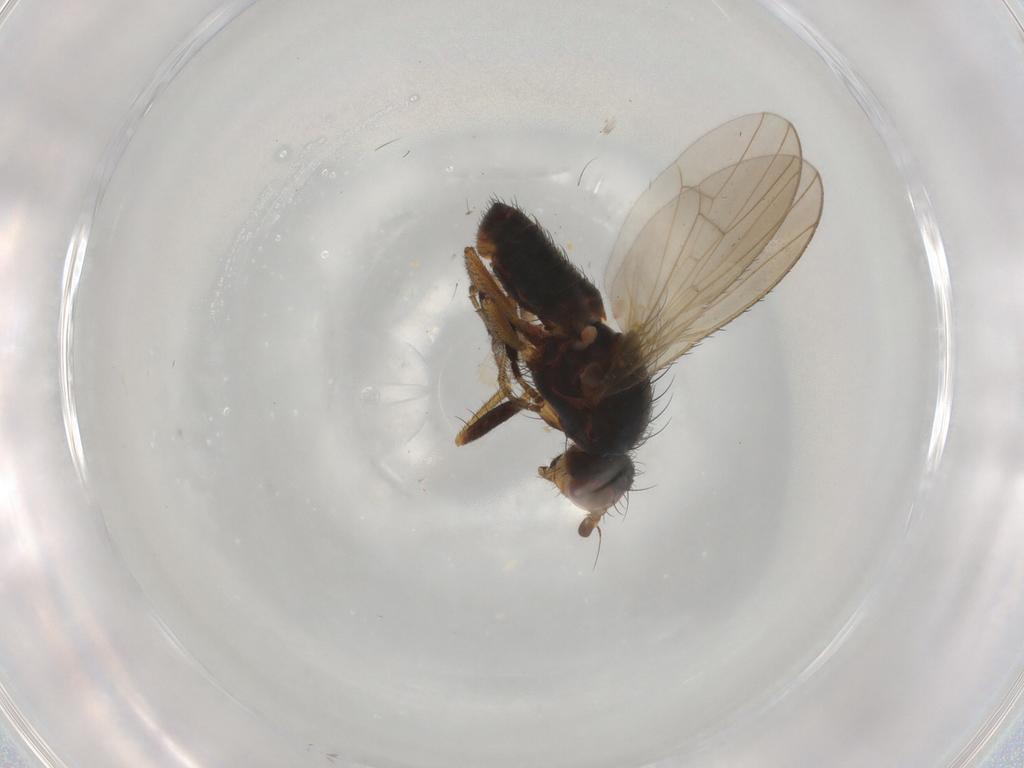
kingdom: Animalia
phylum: Arthropoda
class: Insecta
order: Diptera
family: Heleomyzidae
